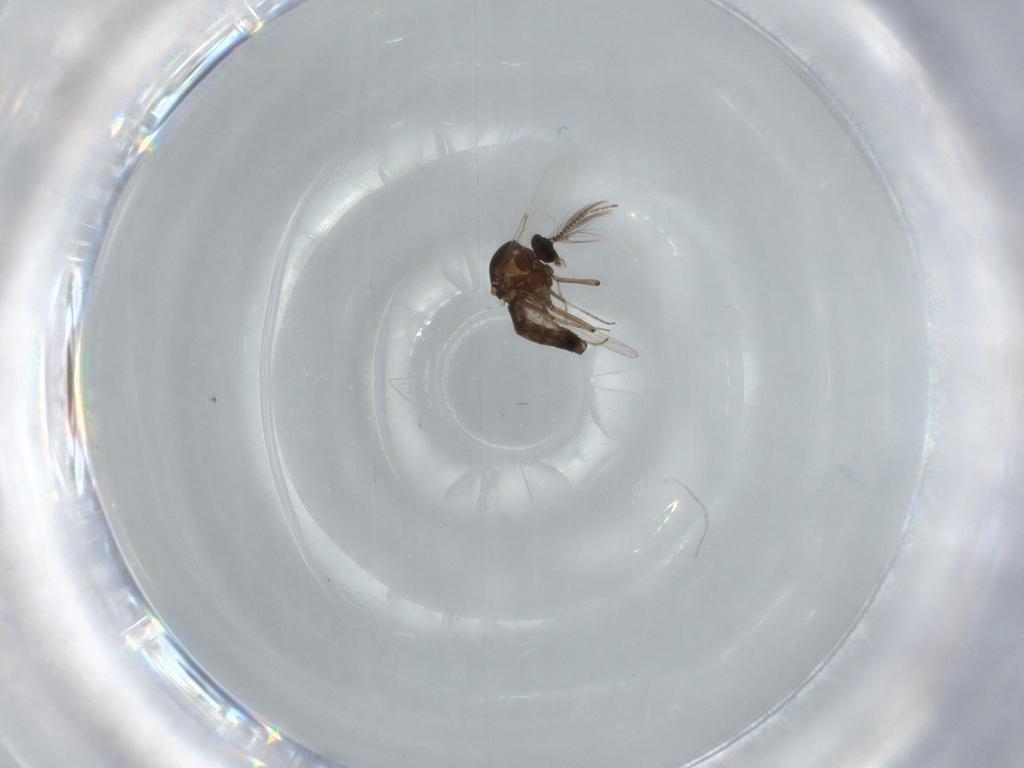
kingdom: Animalia
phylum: Arthropoda
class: Insecta
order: Diptera
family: Ceratopogonidae
